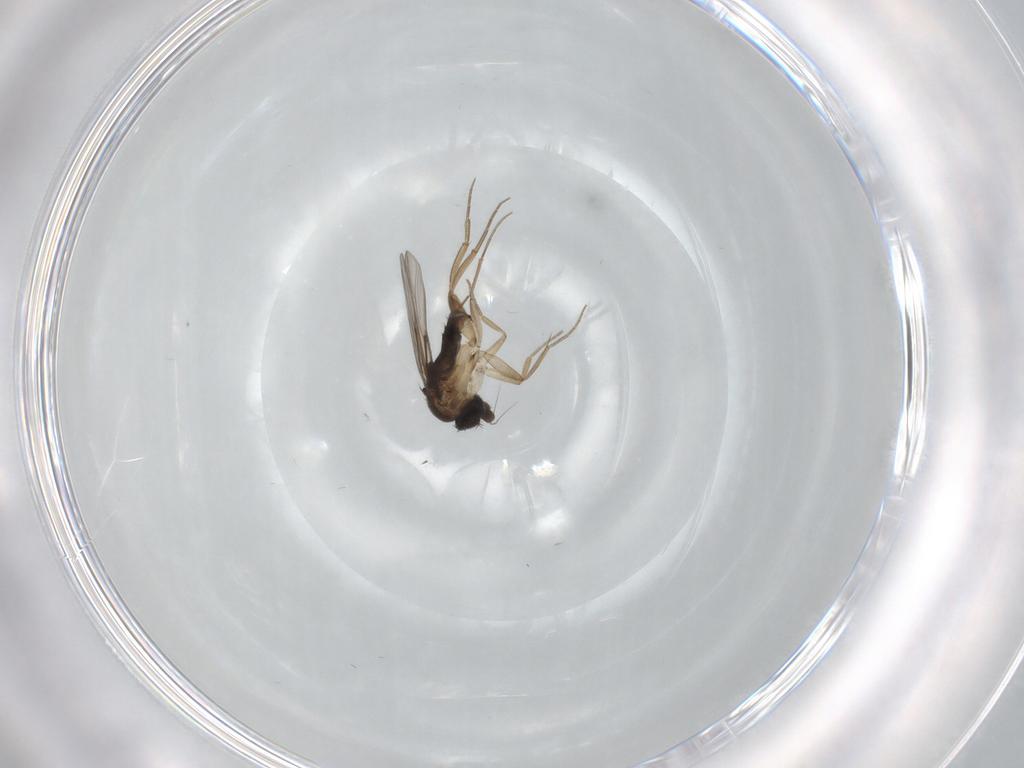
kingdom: Animalia
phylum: Arthropoda
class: Insecta
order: Diptera
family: Phoridae
